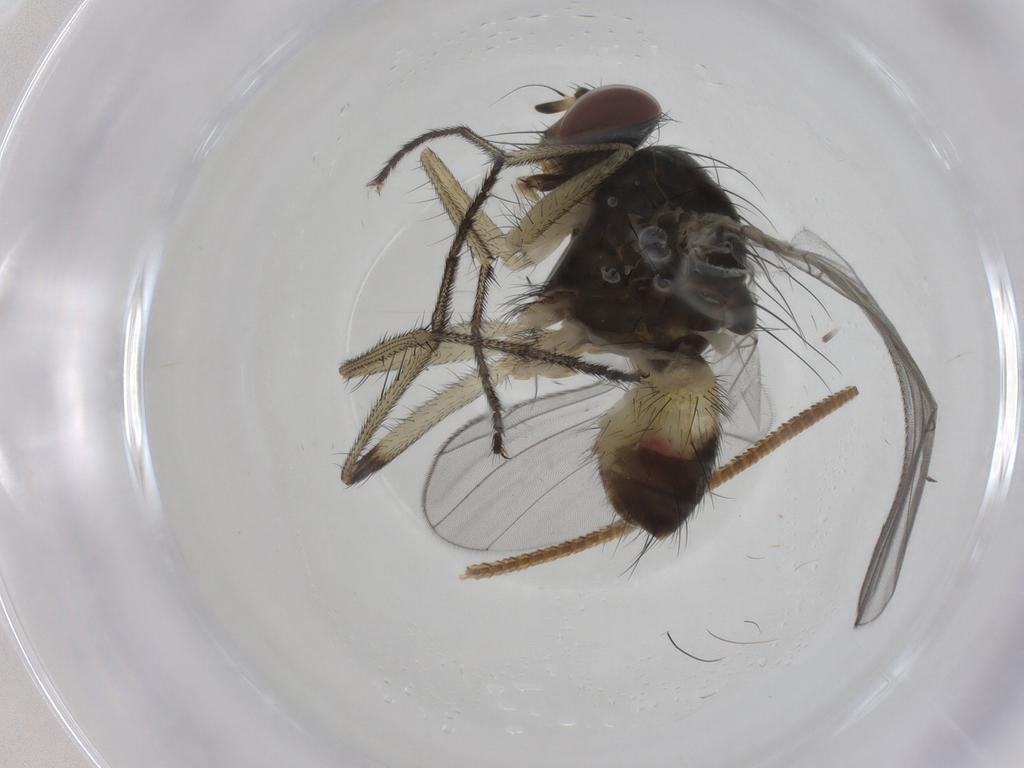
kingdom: Animalia
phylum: Arthropoda
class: Insecta
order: Diptera
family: Muscidae
